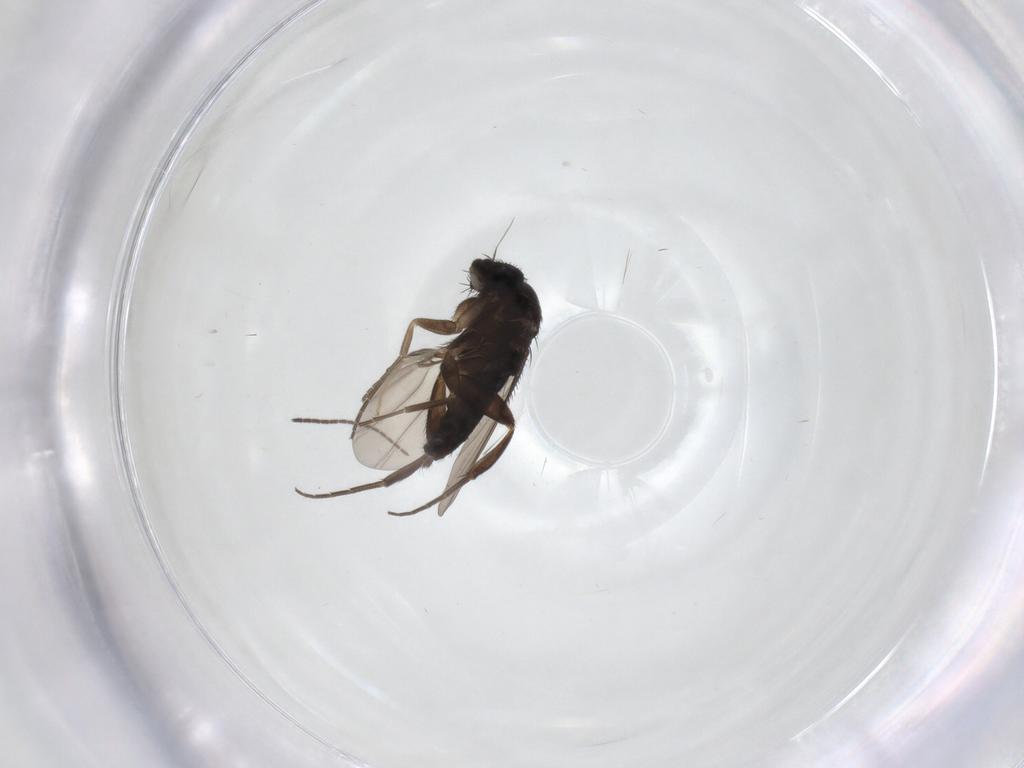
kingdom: Animalia
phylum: Arthropoda
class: Insecta
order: Diptera
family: Phoridae
